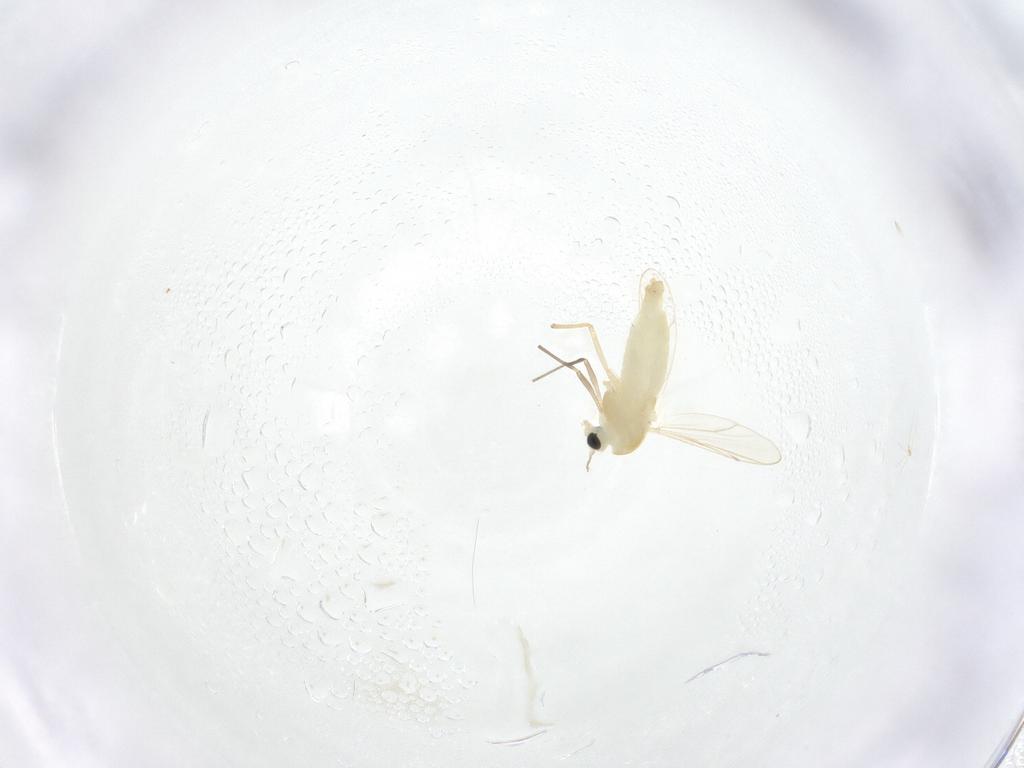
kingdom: Animalia
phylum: Arthropoda
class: Insecta
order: Diptera
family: Chironomidae
